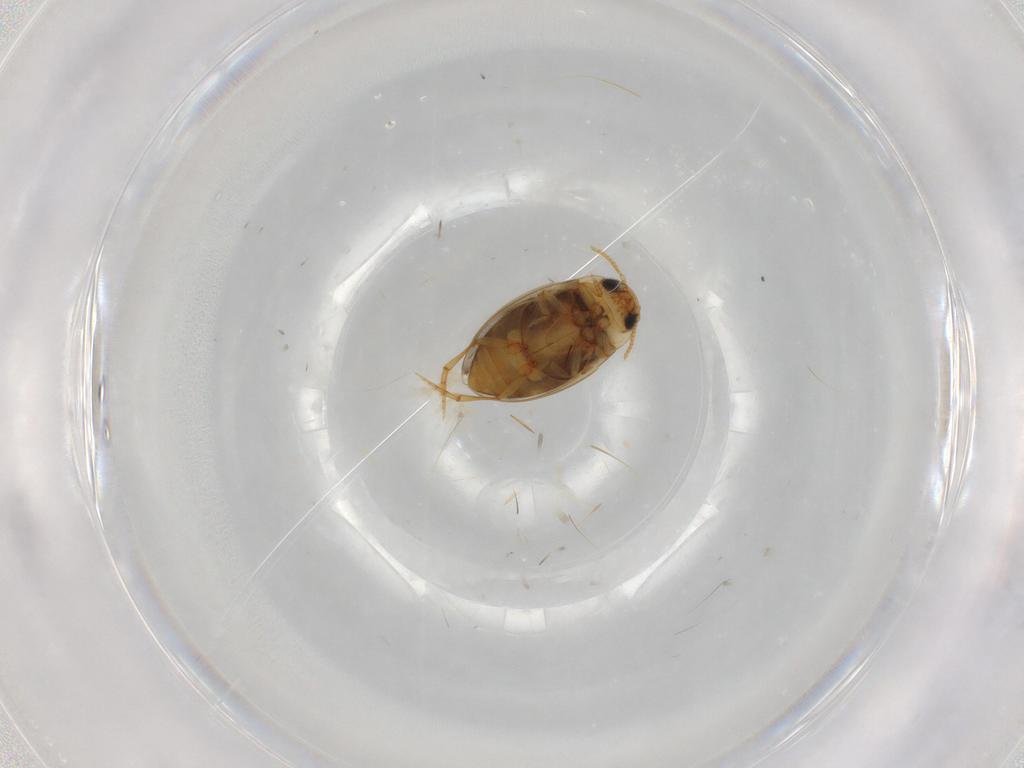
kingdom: Animalia
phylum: Arthropoda
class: Insecta
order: Coleoptera
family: Dytiscidae
